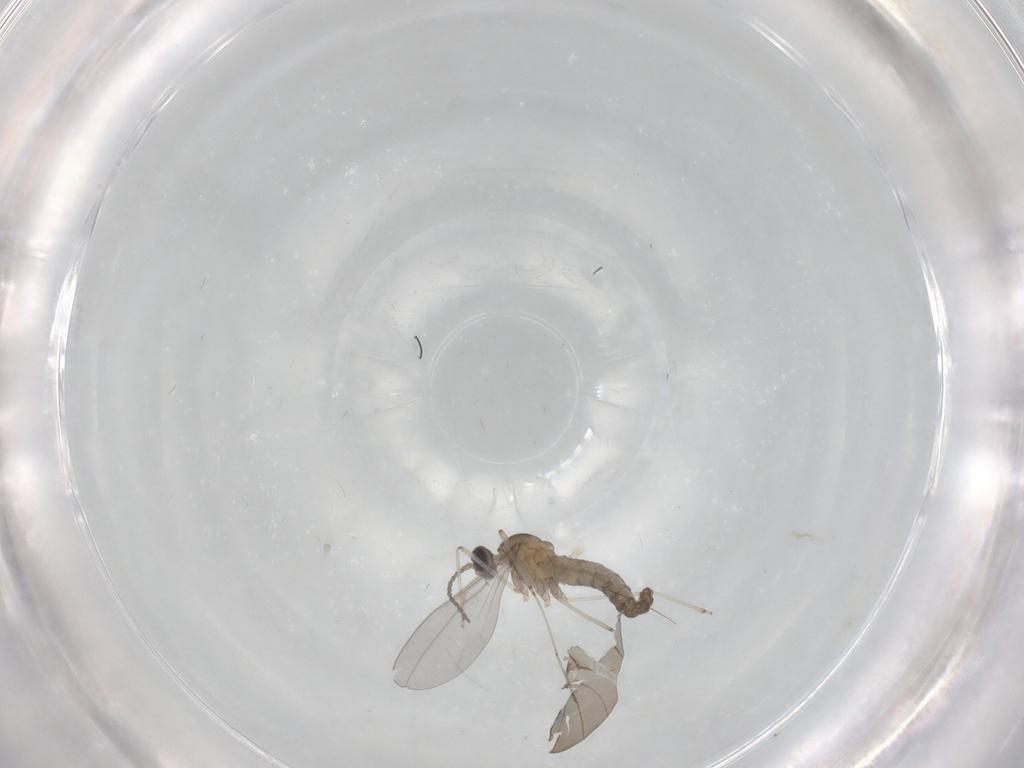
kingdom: Animalia
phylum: Arthropoda
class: Insecta
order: Diptera
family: Cecidomyiidae
